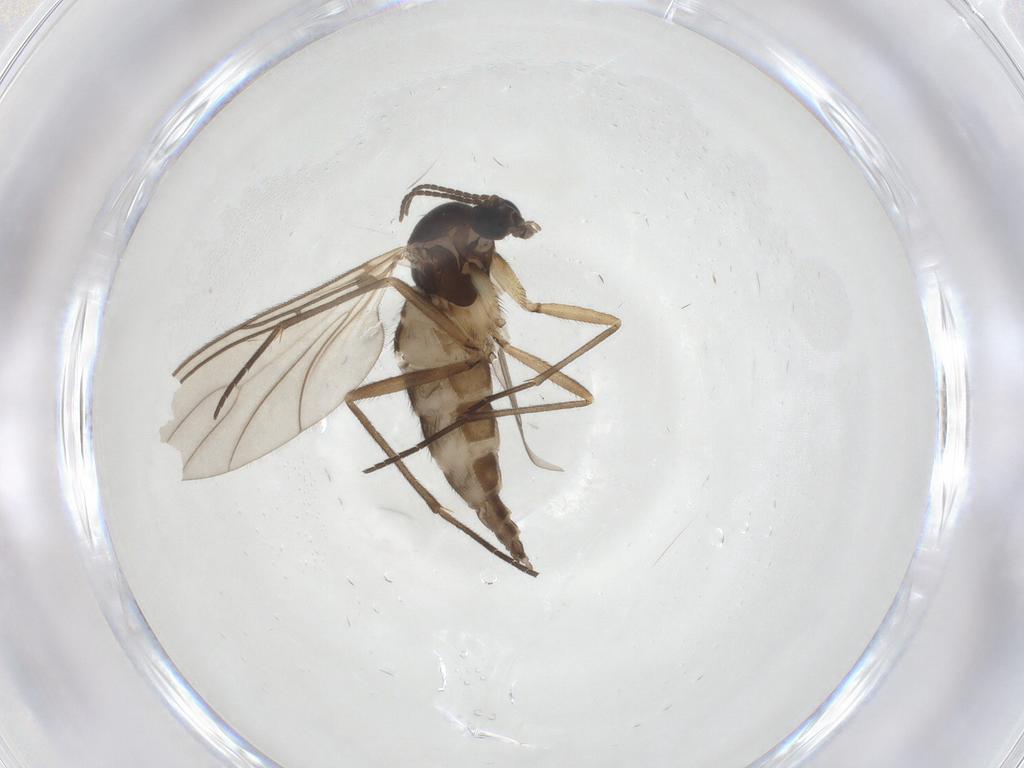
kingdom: Animalia
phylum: Arthropoda
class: Insecta
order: Diptera
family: Sciaridae
